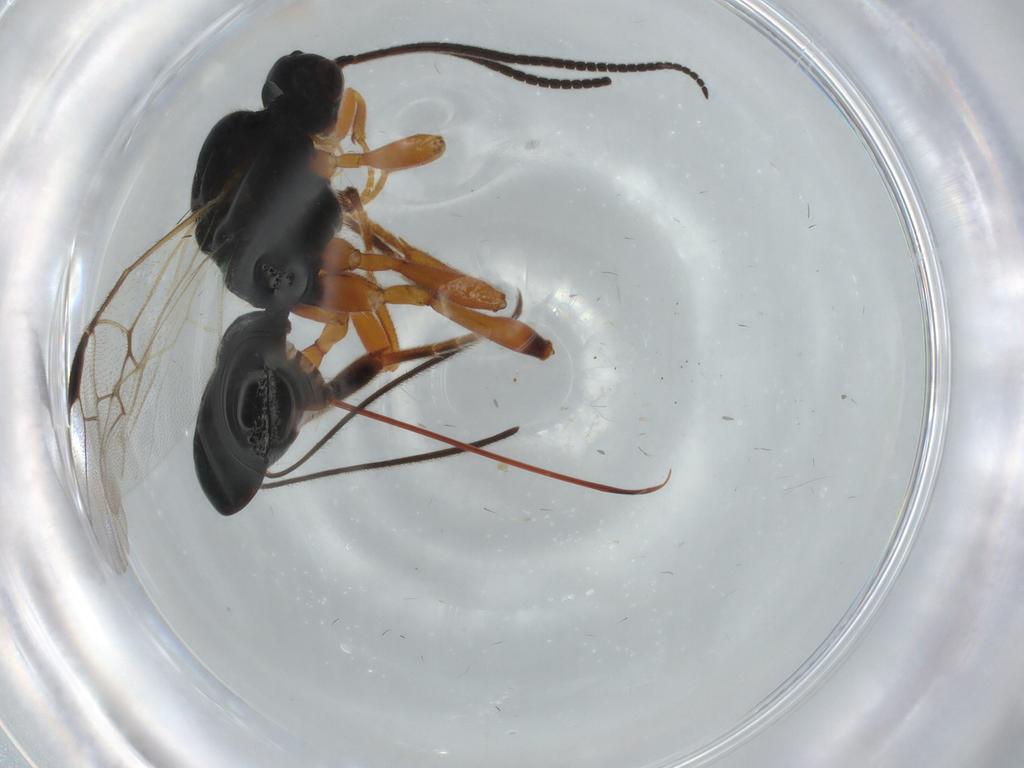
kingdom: Animalia
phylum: Arthropoda
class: Insecta
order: Hymenoptera
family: Braconidae
